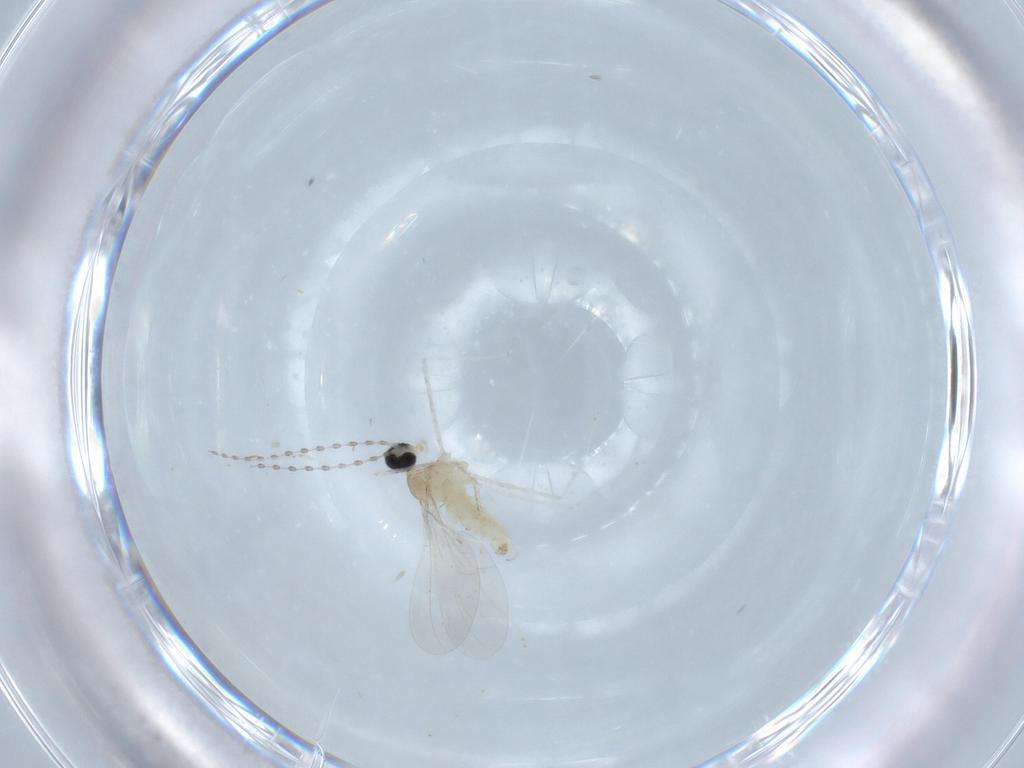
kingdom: Animalia
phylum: Arthropoda
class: Insecta
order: Diptera
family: Cecidomyiidae
